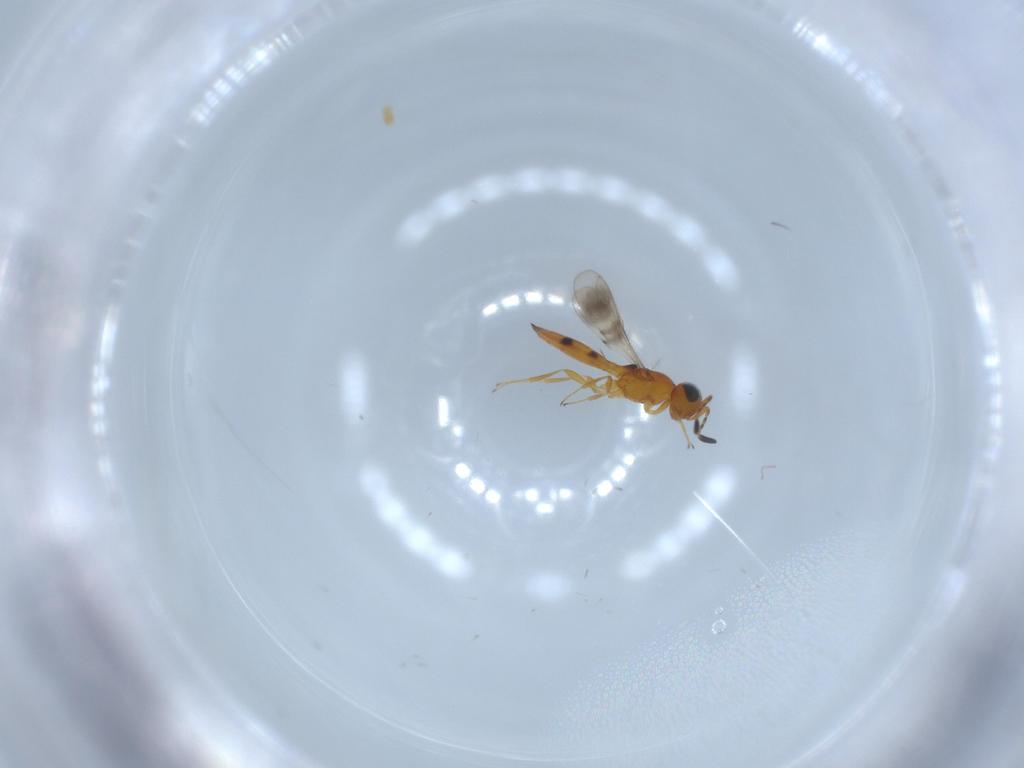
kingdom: Animalia
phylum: Arthropoda
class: Insecta
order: Hymenoptera
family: Scelionidae
